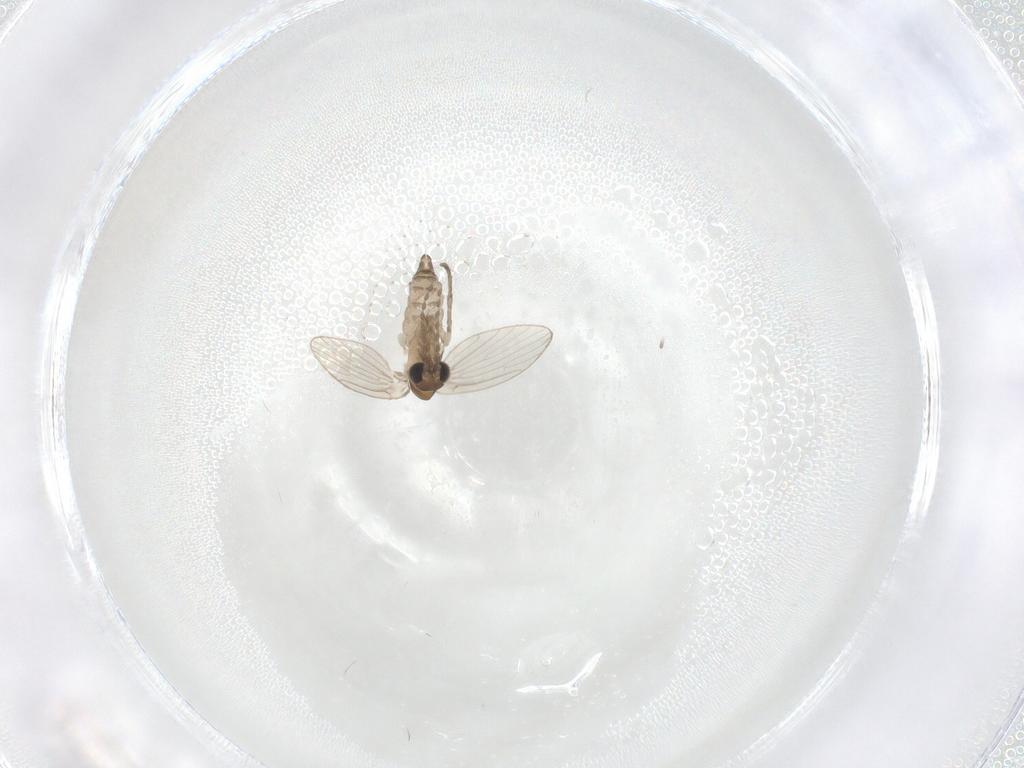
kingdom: Animalia
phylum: Arthropoda
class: Insecta
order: Diptera
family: Limoniidae
